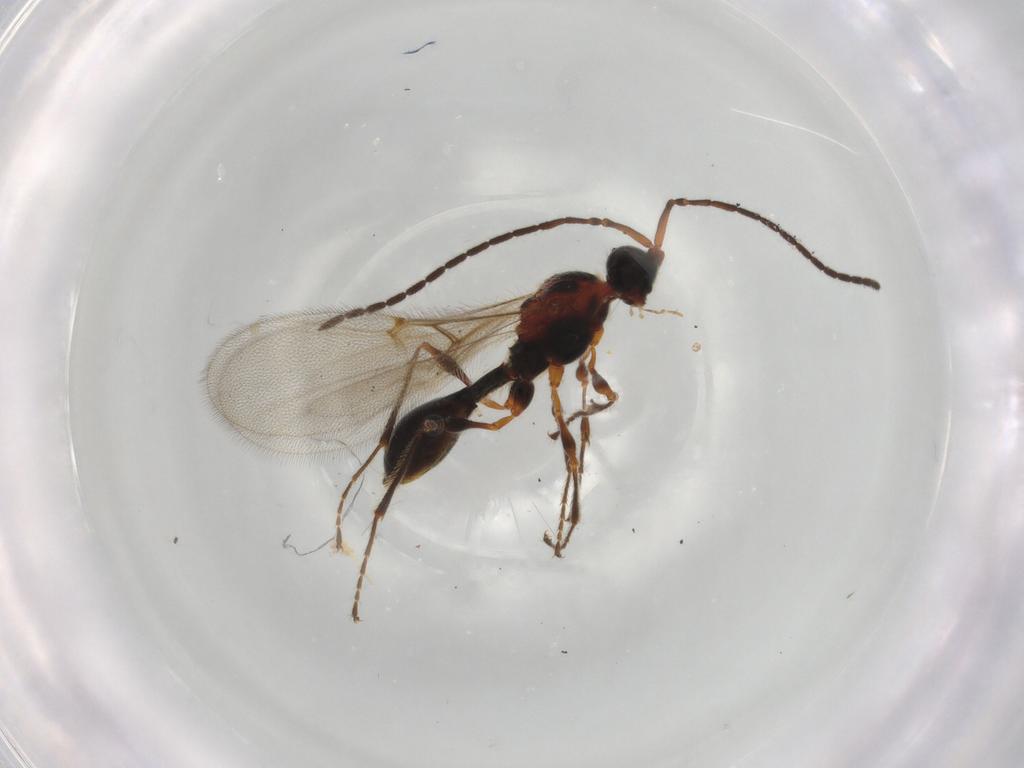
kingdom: Animalia
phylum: Arthropoda
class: Insecta
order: Hymenoptera
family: Diapriidae
